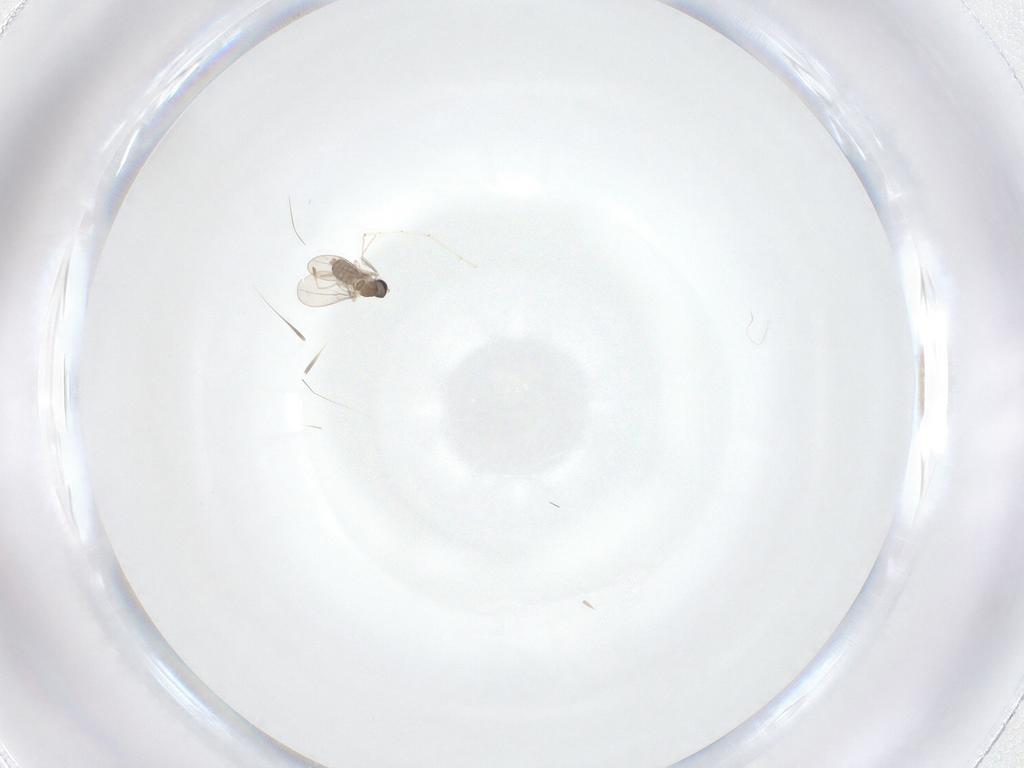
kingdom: Animalia
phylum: Arthropoda
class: Insecta
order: Diptera
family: Cecidomyiidae
